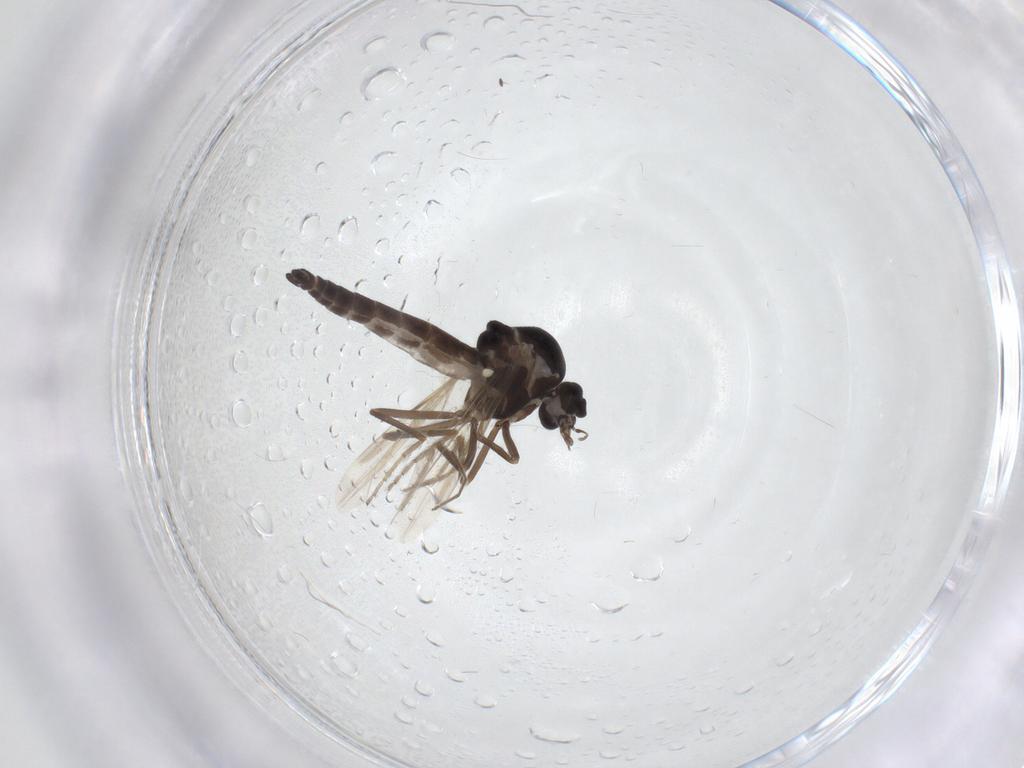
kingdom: Animalia
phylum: Arthropoda
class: Insecta
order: Diptera
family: Ceratopogonidae
